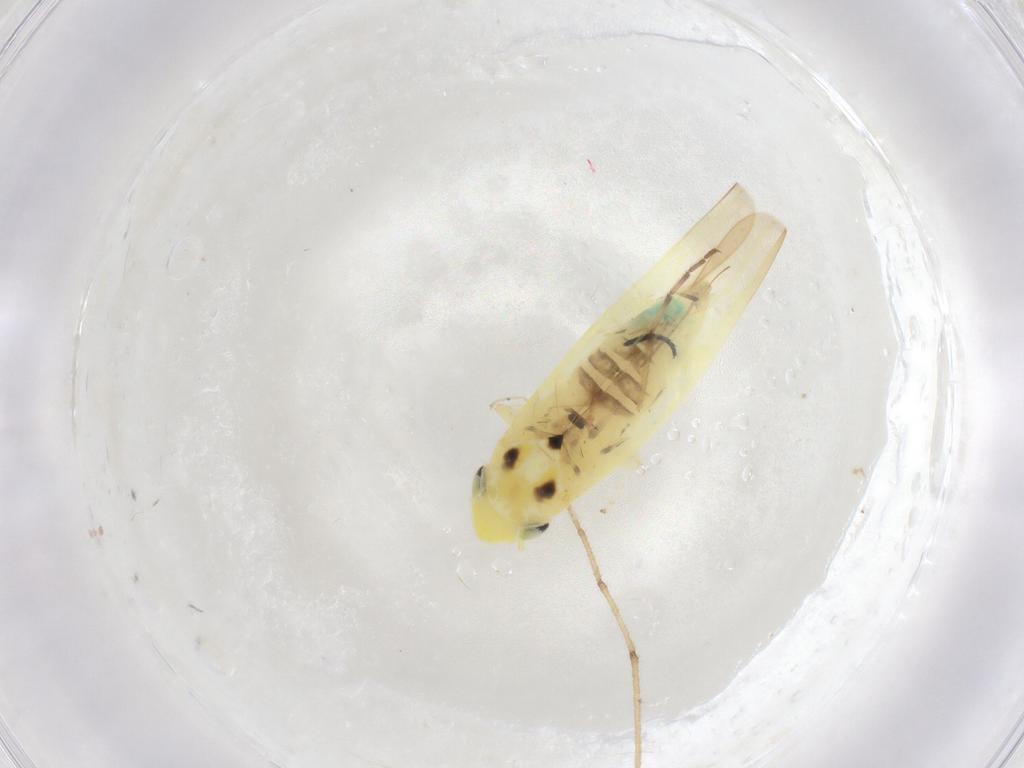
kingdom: Animalia
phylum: Arthropoda
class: Insecta
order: Hemiptera
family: Cicadellidae
